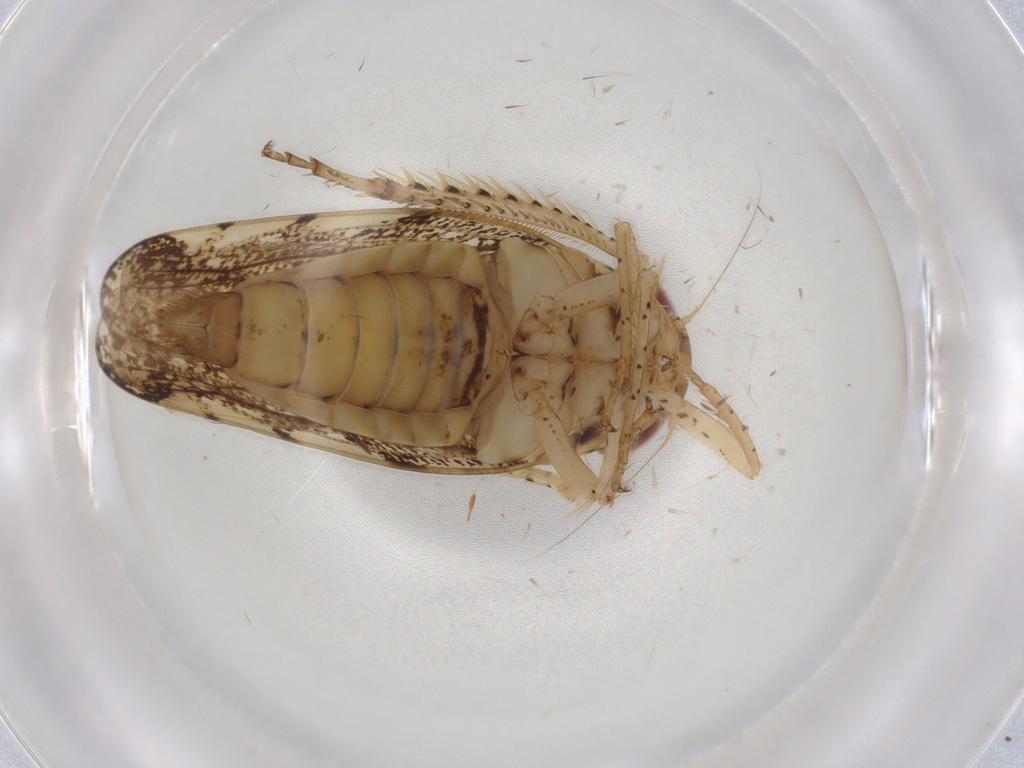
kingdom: Animalia
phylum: Arthropoda
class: Insecta
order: Hemiptera
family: Cicadellidae
